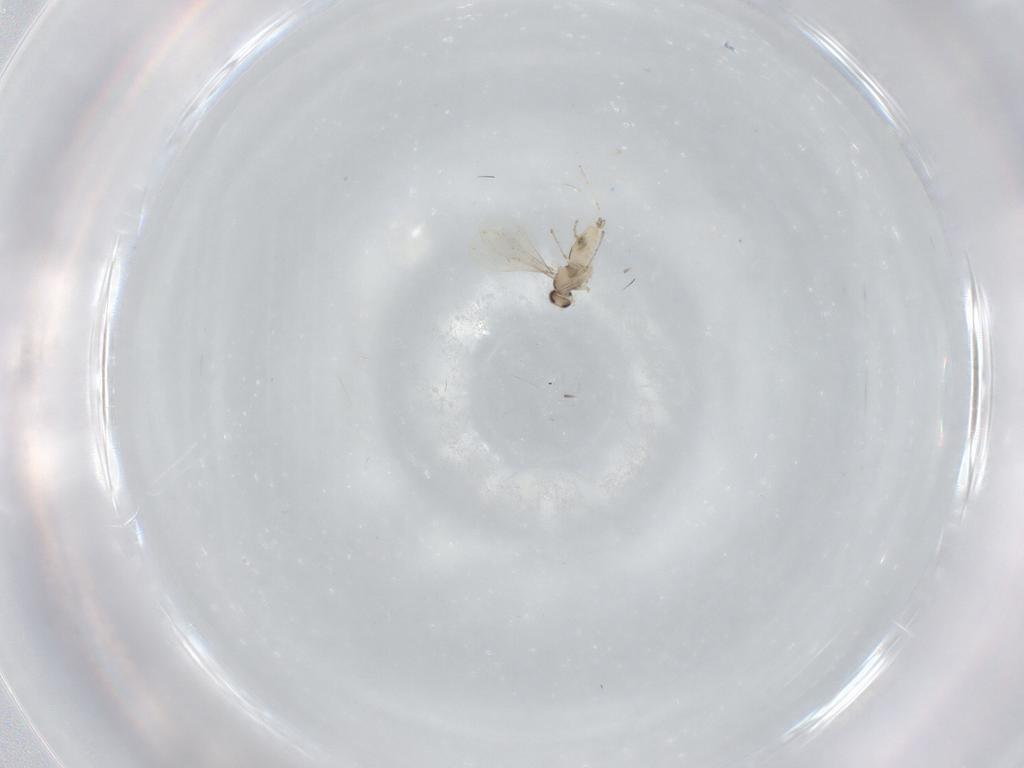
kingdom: Animalia
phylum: Arthropoda
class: Insecta
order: Diptera
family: Cecidomyiidae
